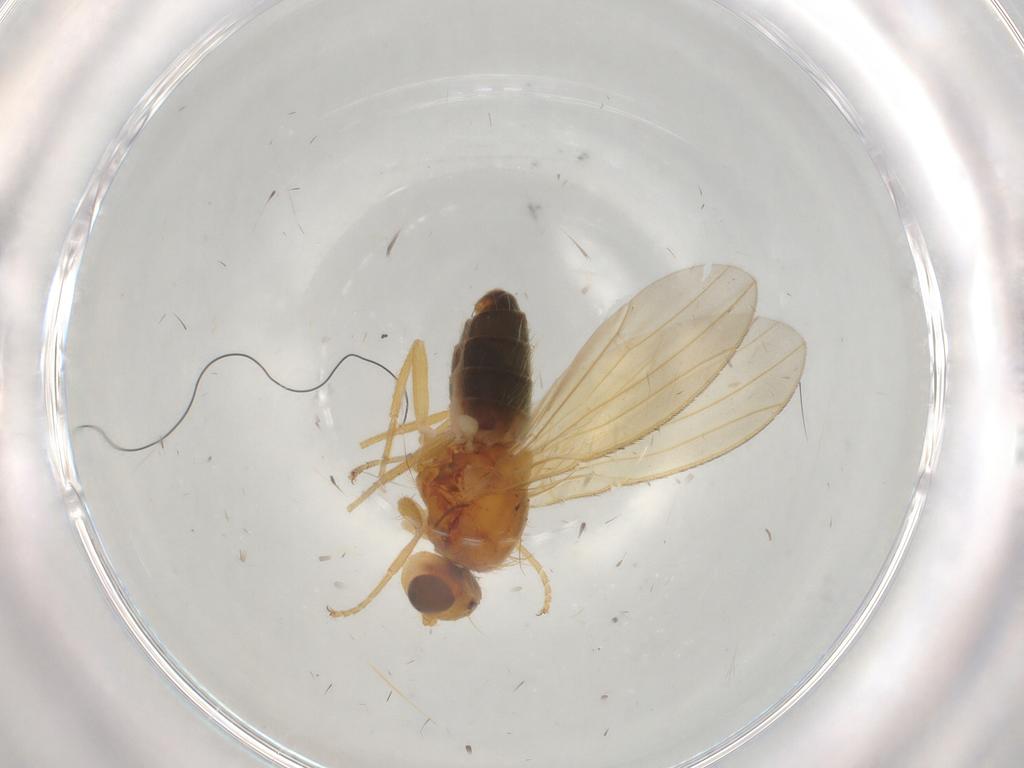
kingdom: Animalia
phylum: Arthropoda
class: Insecta
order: Diptera
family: Heleomyzidae
